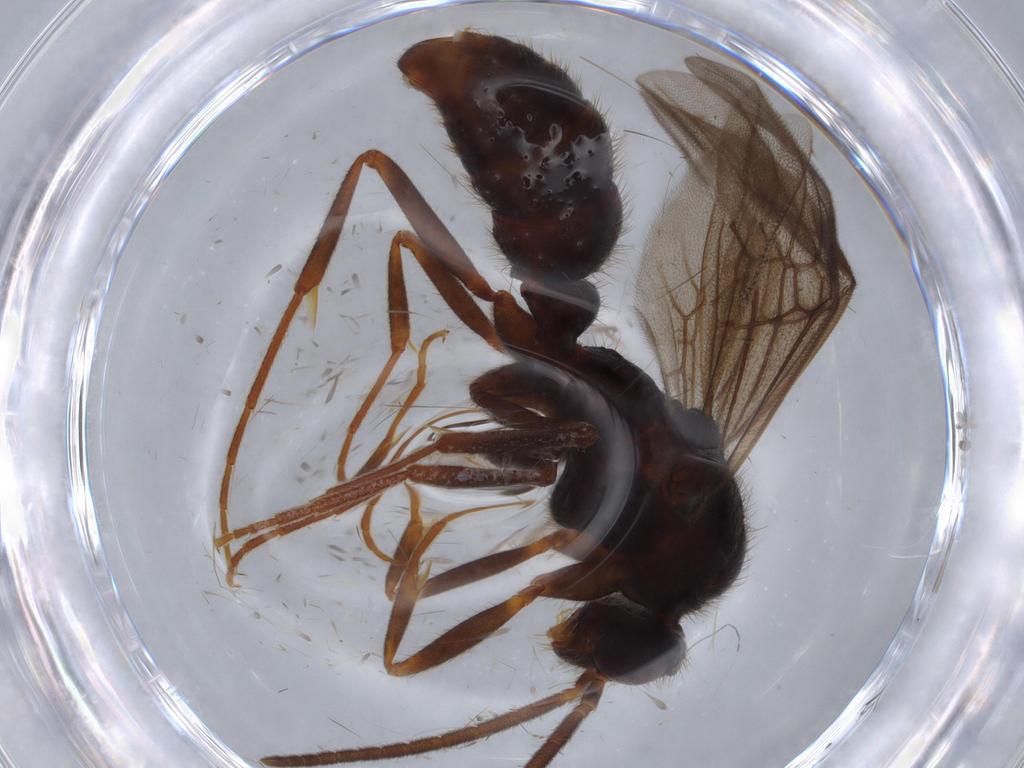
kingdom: Animalia
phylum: Arthropoda
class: Insecta
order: Hymenoptera
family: Formicidae
